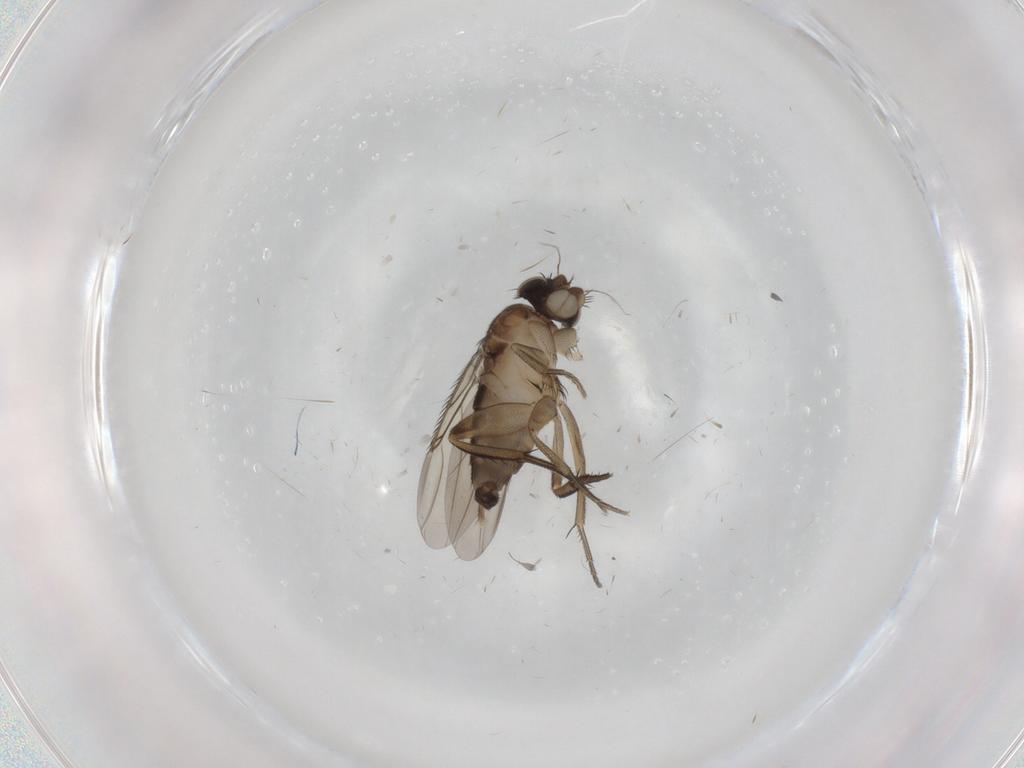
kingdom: Animalia
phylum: Arthropoda
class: Insecta
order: Diptera
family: Phoridae
